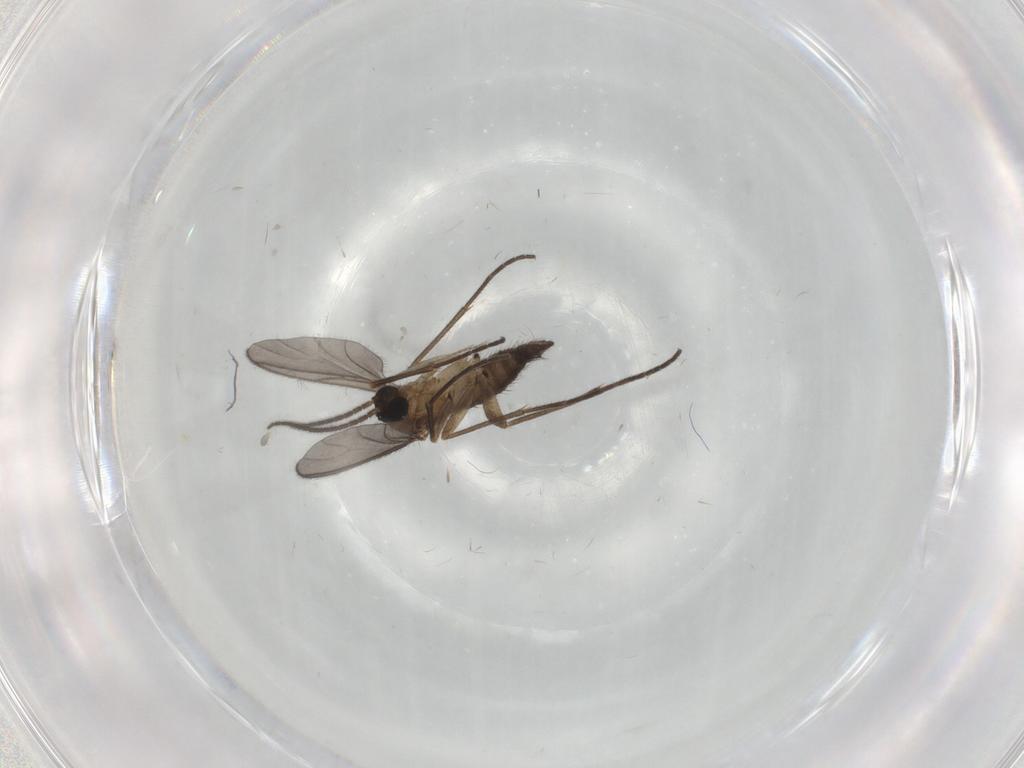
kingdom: Animalia
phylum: Arthropoda
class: Insecta
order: Diptera
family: Sciaridae
